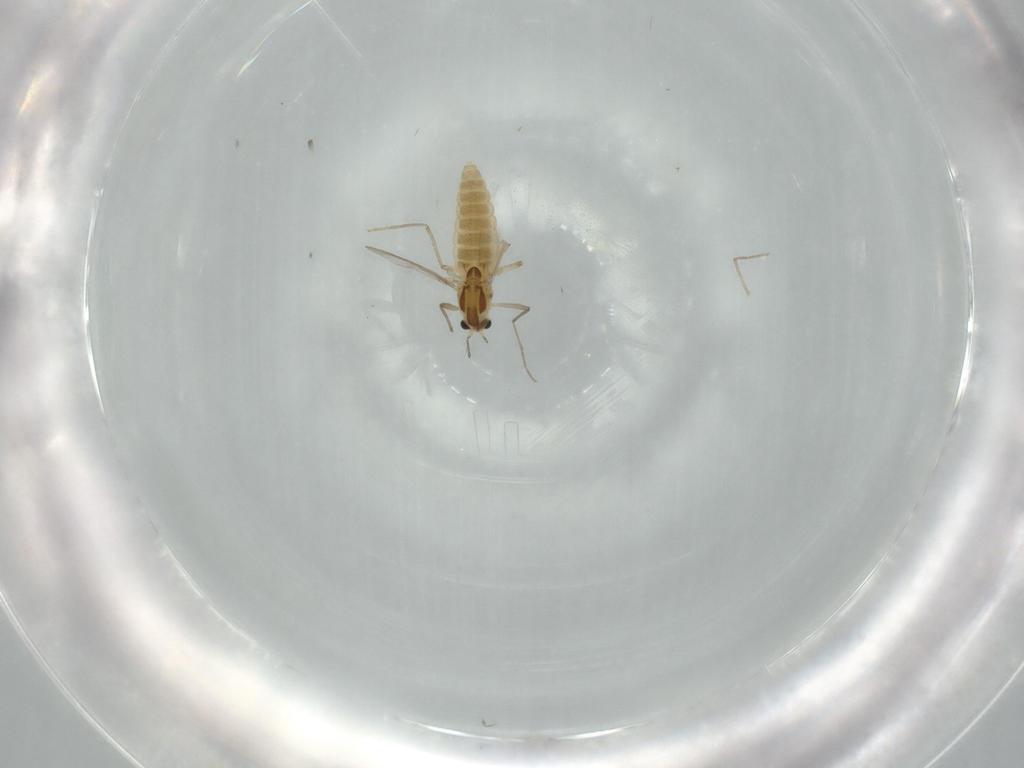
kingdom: Animalia
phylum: Arthropoda
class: Insecta
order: Diptera
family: Chironomidae
